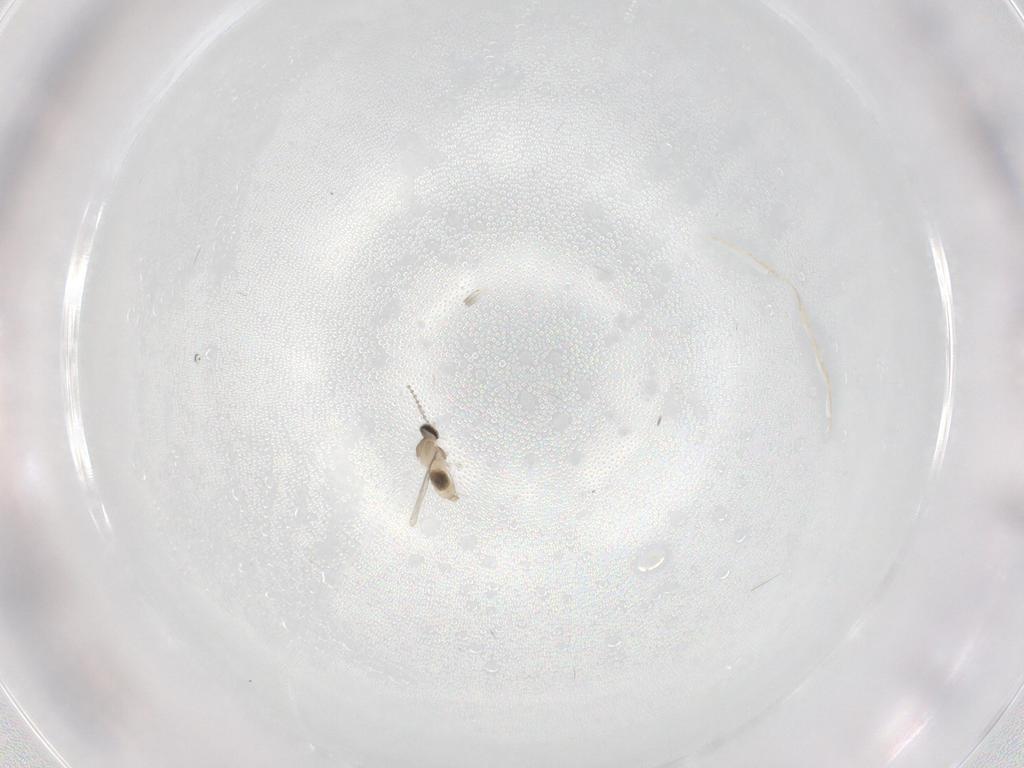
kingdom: Animalia
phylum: Arthropoda
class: Insecta
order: Diptera
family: Cecidomyiidae
